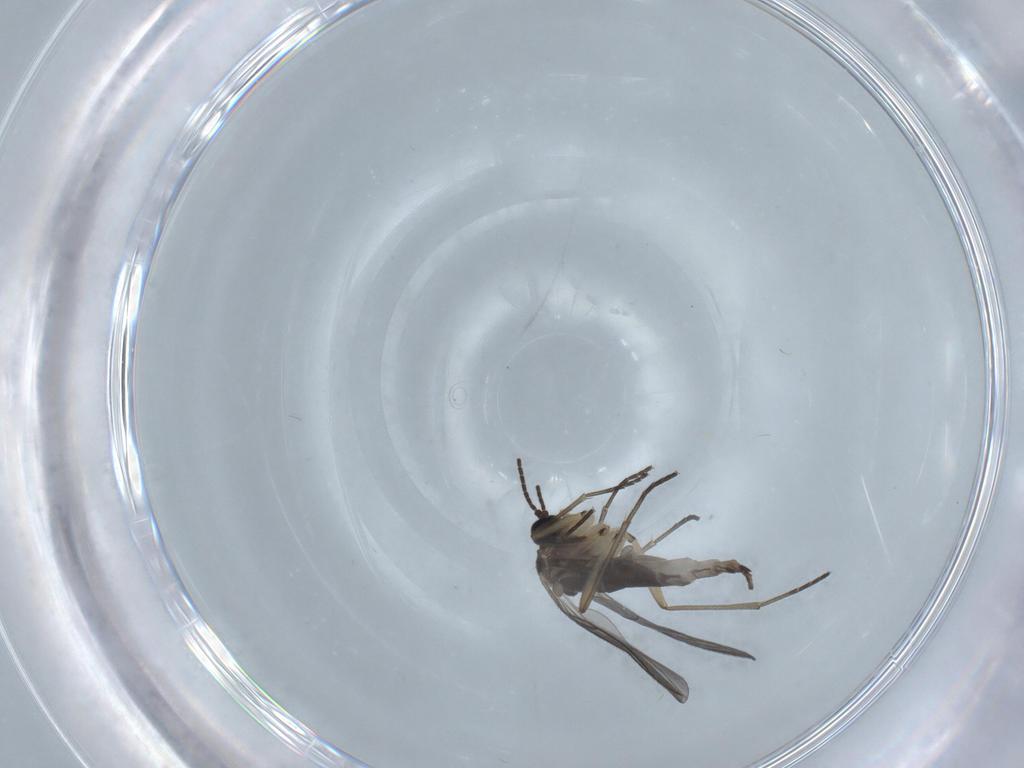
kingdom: Animalia
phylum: Arthropoda
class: Insecta
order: Diptera
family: Sciaridae
